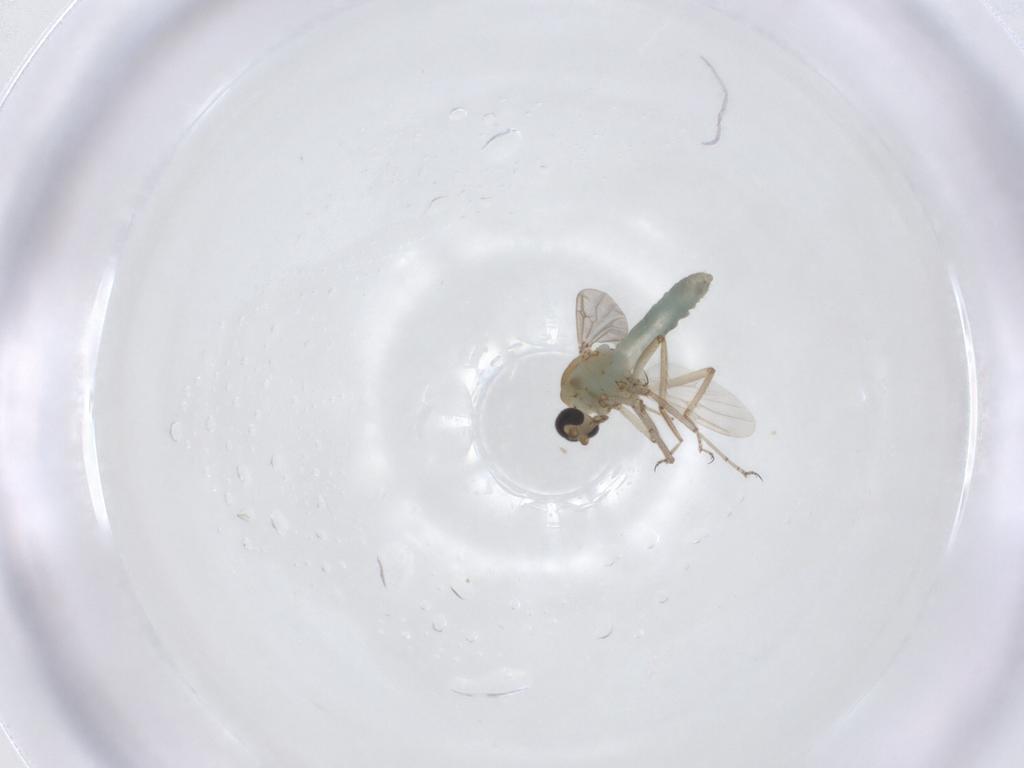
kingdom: Animalia
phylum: Arthropoda
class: Insecta
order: Diptera
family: Ceratopogonidae
